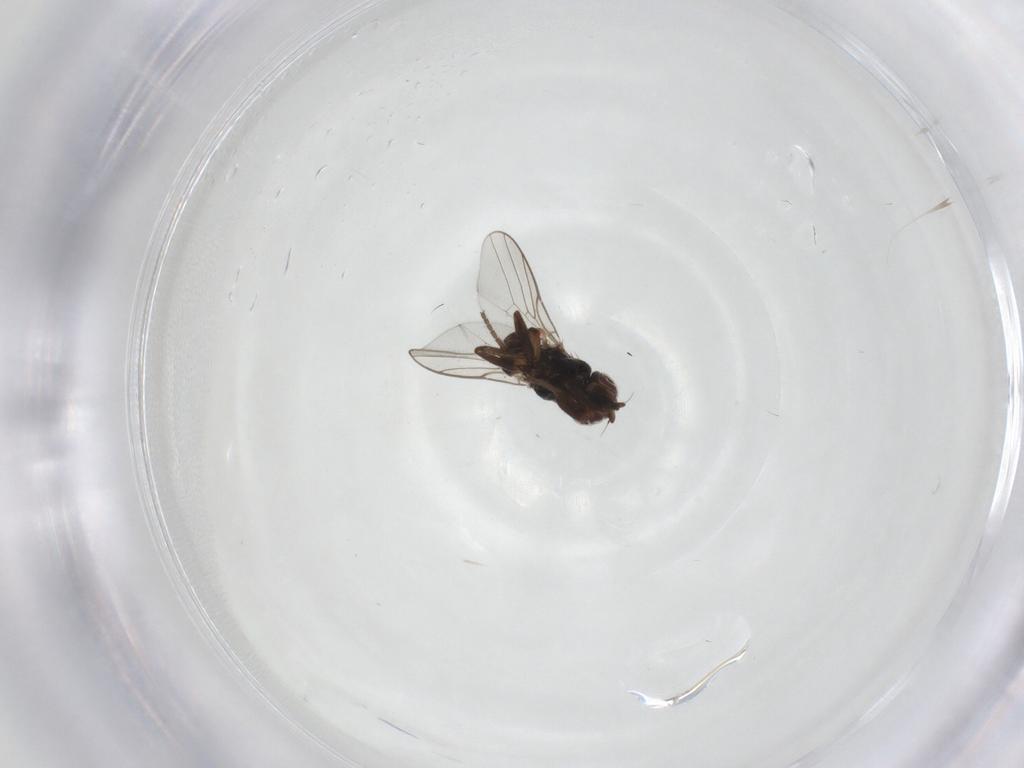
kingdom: Animalia
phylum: Arthropoda
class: Insecta
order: Diptera
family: Chloropidae
